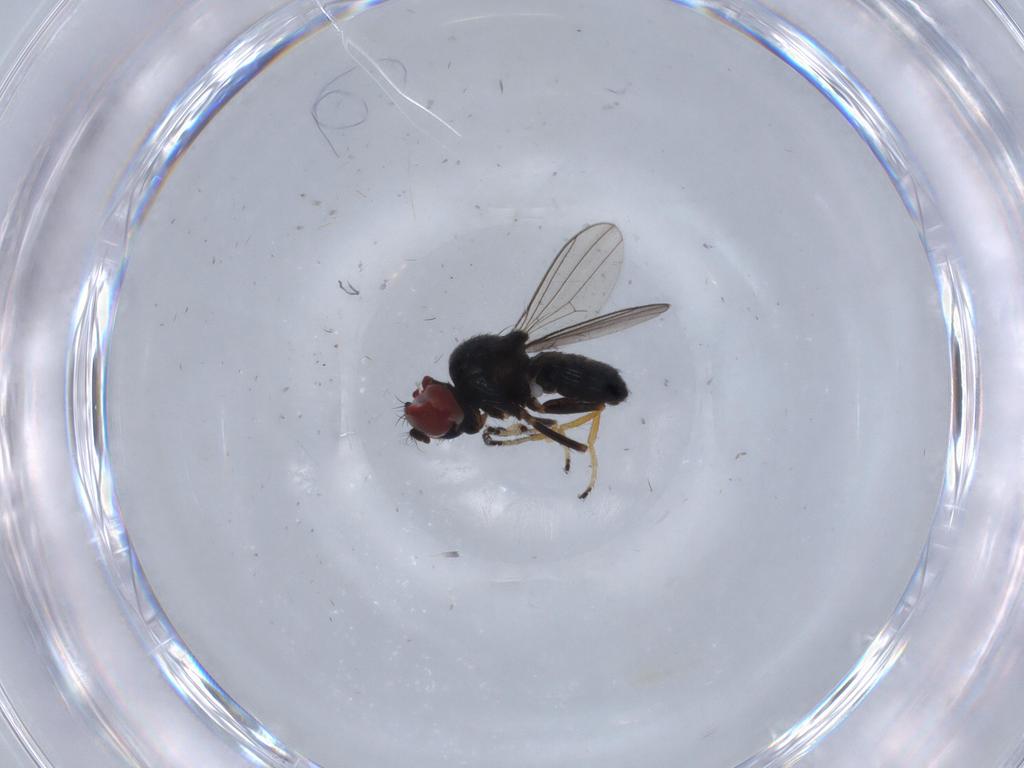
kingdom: Animalia
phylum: Arthropoda
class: Insecta
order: Diptera
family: Ephydridae
